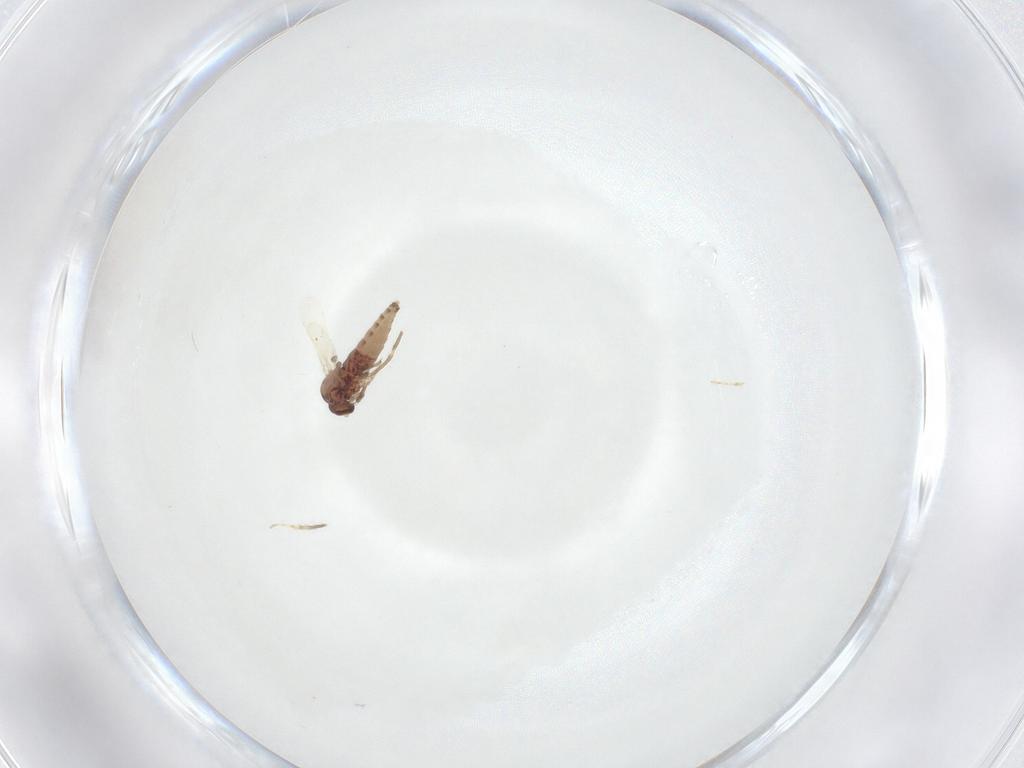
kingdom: Animalia
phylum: Arthropoda
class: Insecta
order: Diptera
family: Ceratopogonidae
